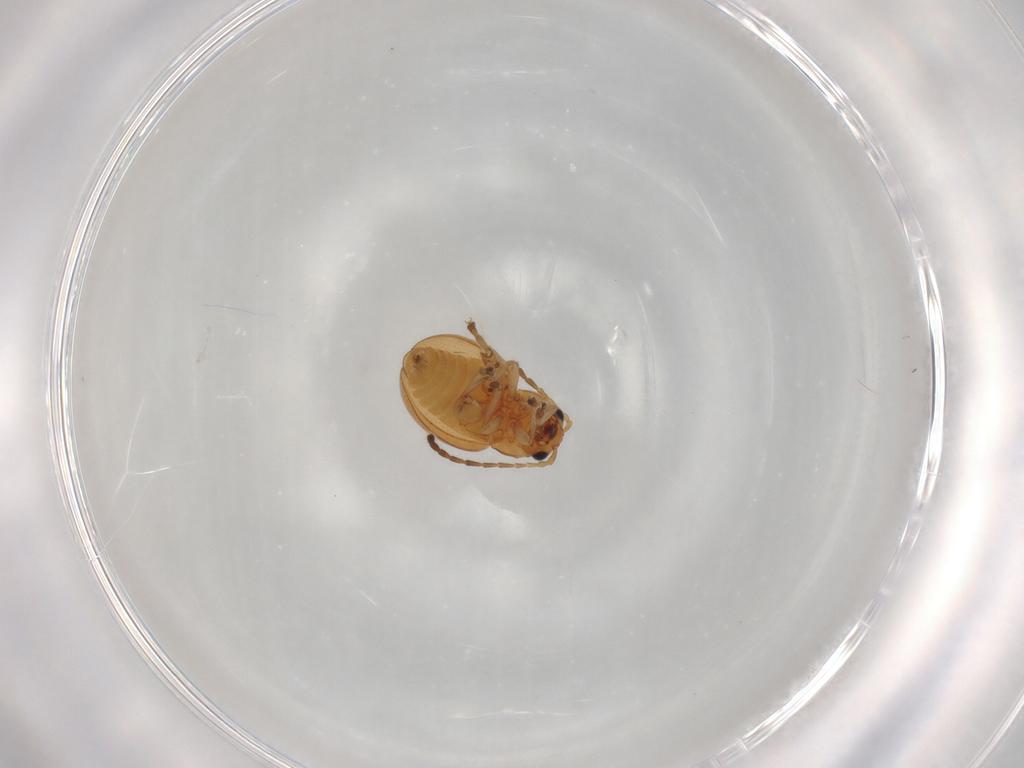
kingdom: Animalia
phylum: Arthropoda
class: Insecta
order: Coleoptera
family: Chrysomelidae
